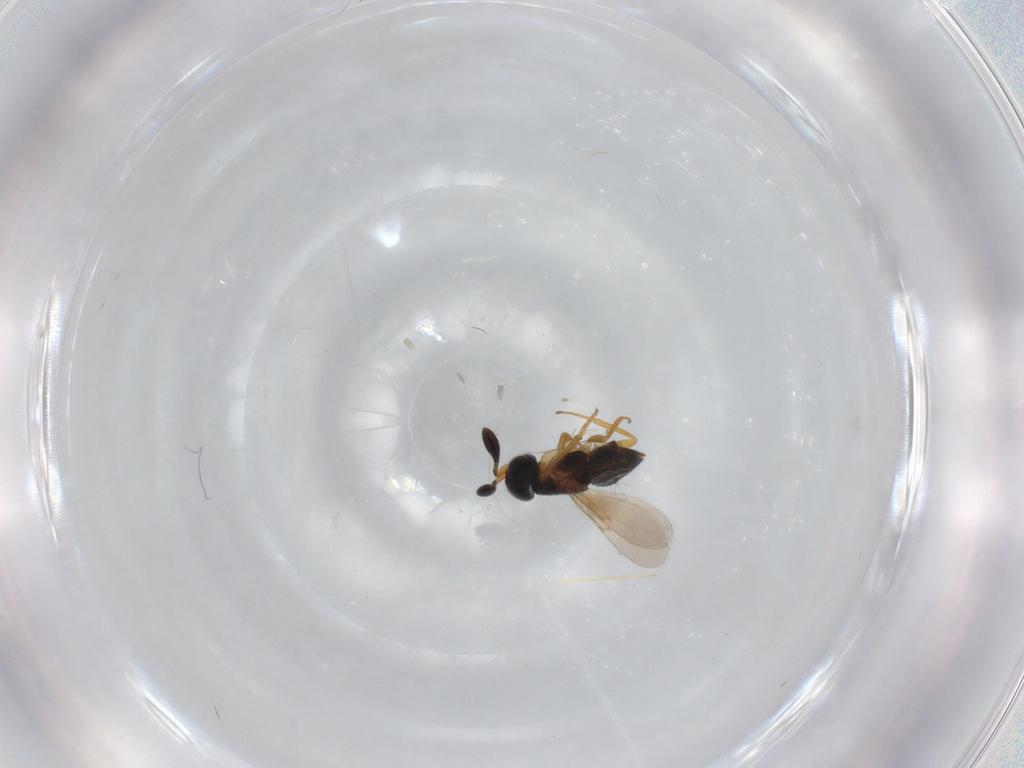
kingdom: Animalia
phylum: Arthropoda
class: Insecta
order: Hymenoptera
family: Encyrtidae
